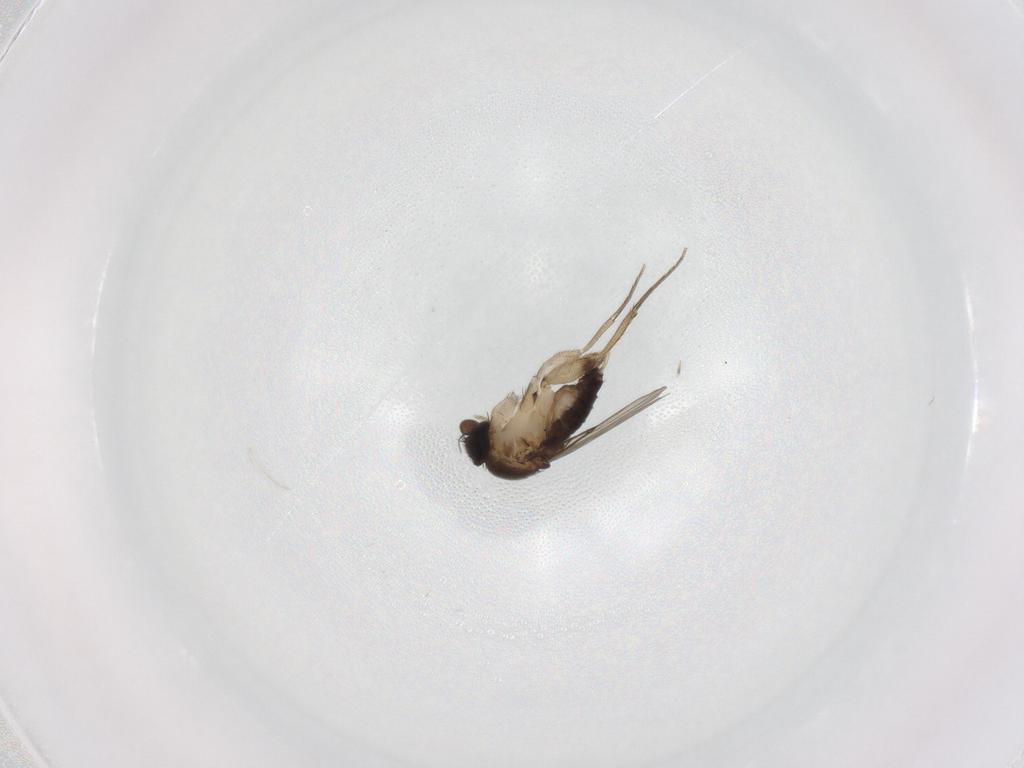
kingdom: Animalia
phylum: Arthropoda
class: Insecta
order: Diptera
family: Phoridae
